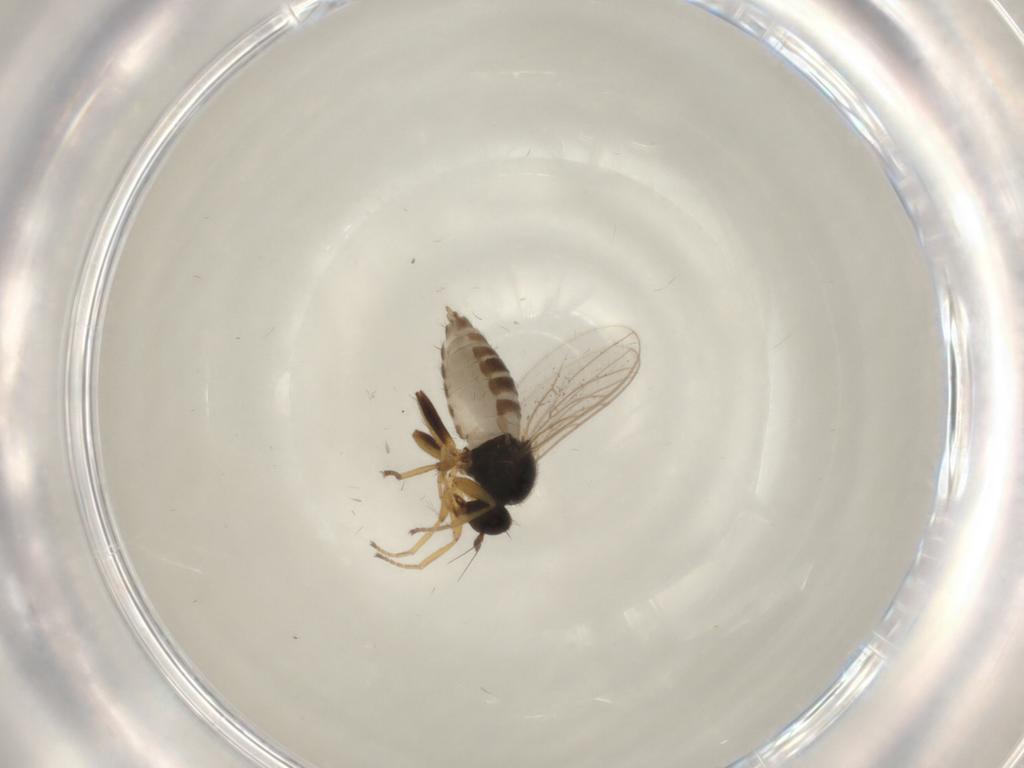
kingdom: Animalia
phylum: Arthropoda
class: Insecta
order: Diptera
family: Hybotidae
